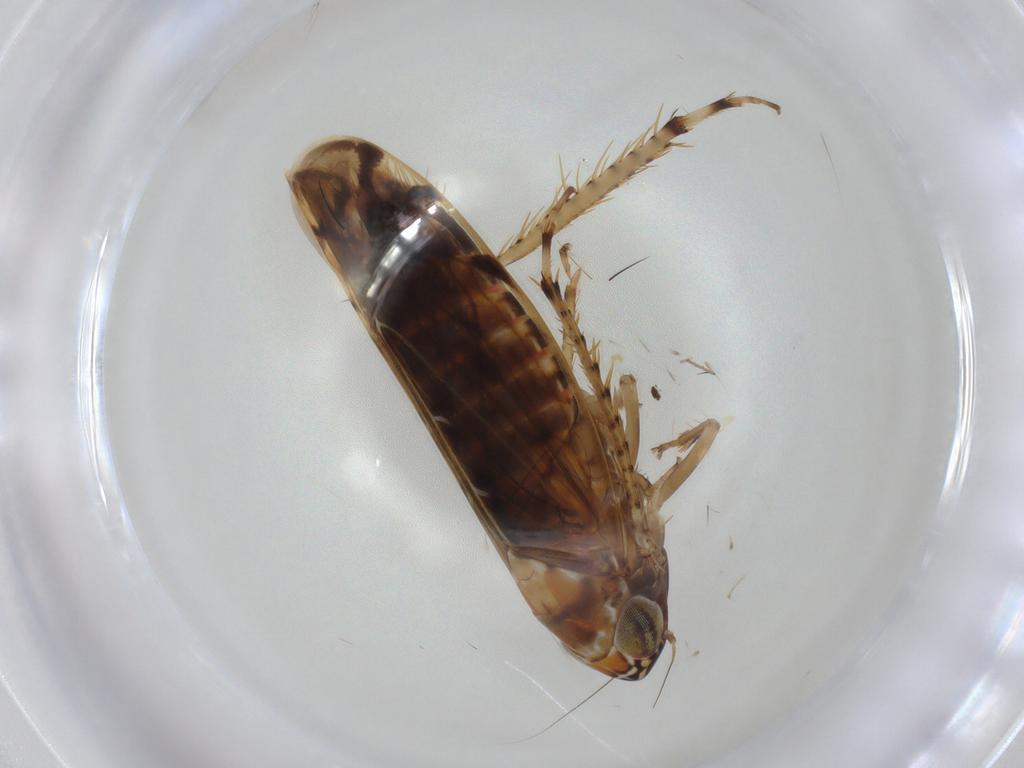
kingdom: Animalia
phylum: Arthropoda
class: Insecta
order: Hemiptera
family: Cicadellidae
